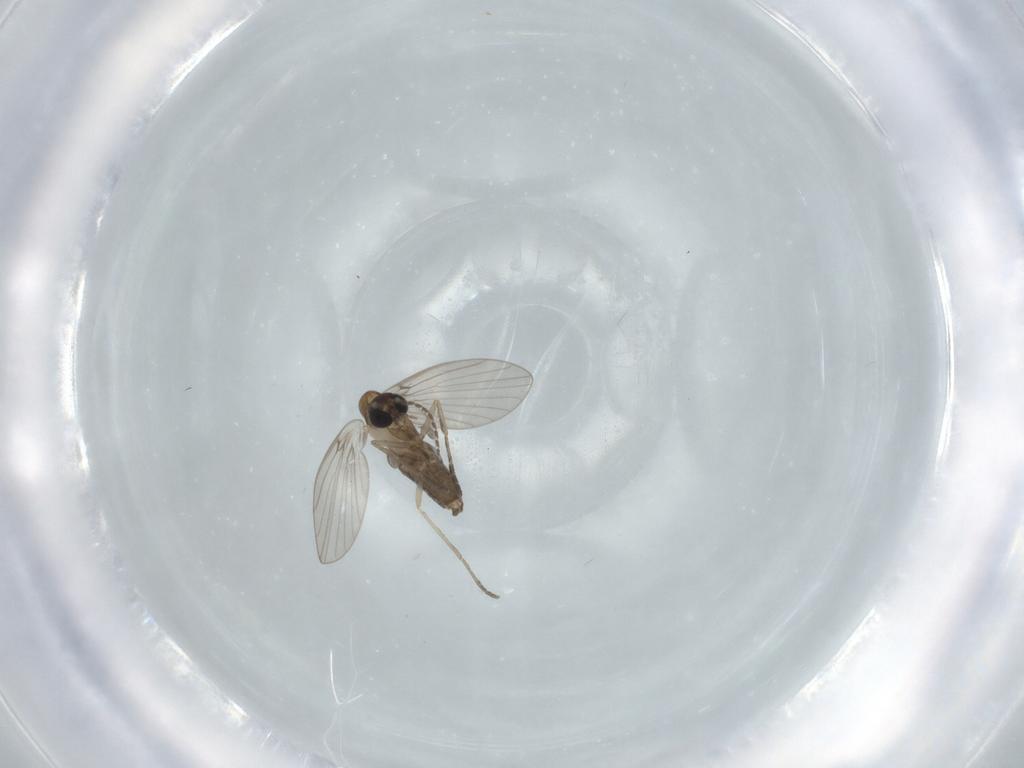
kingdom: Animalia
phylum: Arthropoda
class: Insecta
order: Diptera
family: Psychodidae
